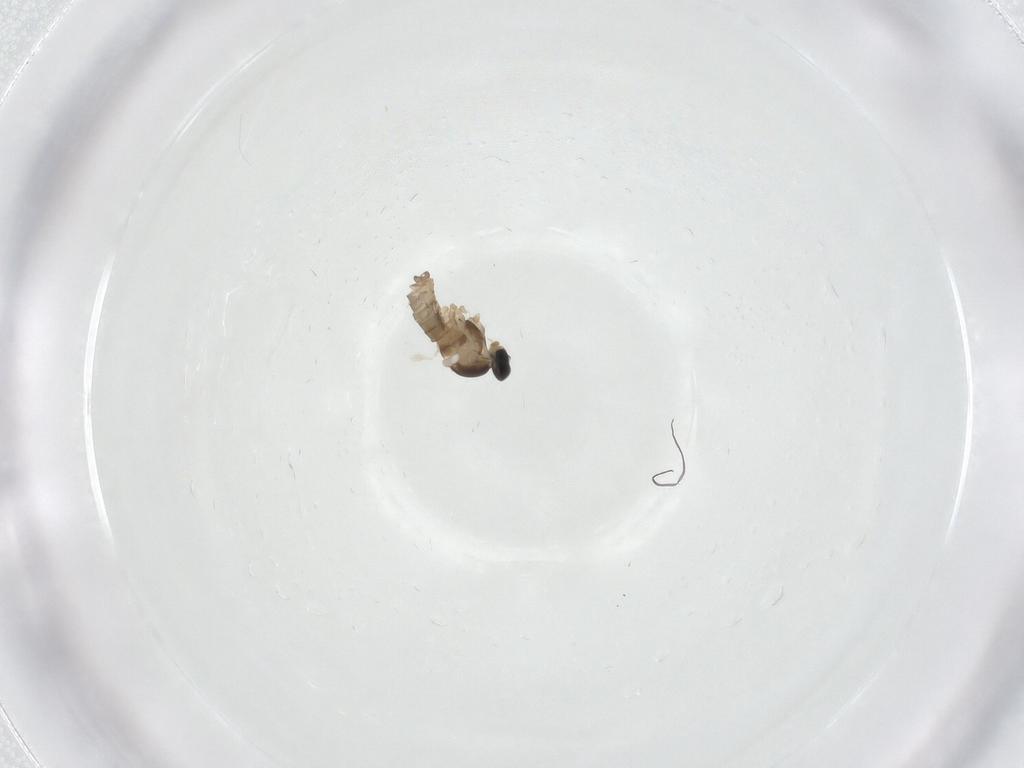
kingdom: Animalia
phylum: Arthropoda
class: Insecta
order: Diptera
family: Cecidomyiidae
